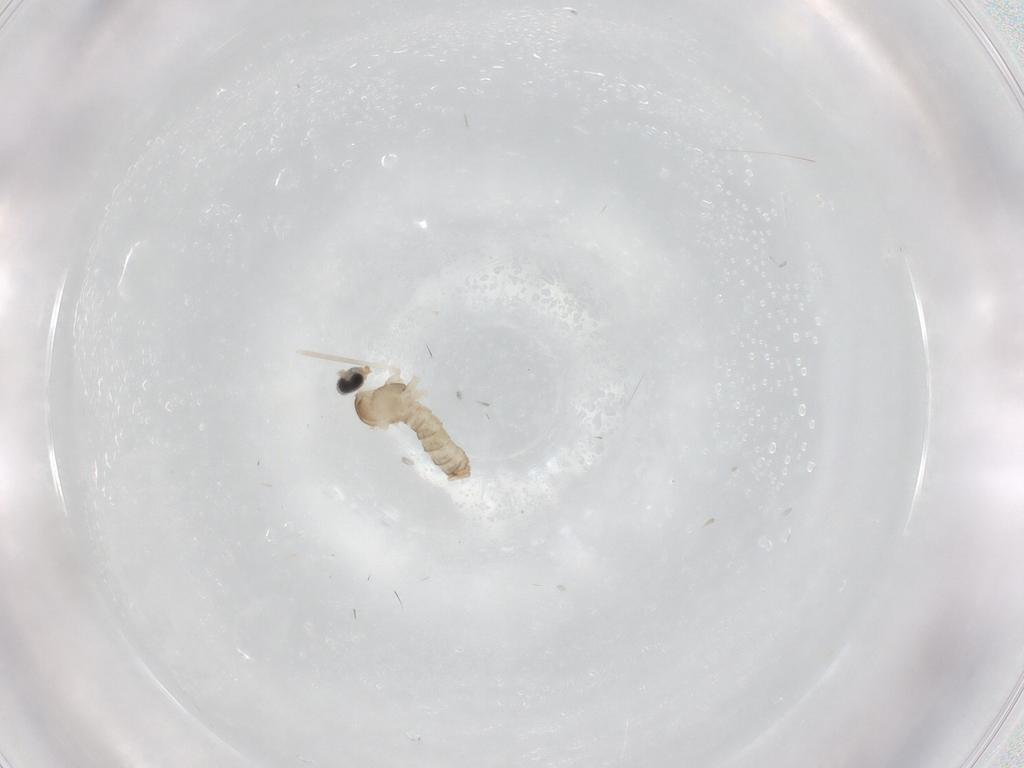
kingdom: Animalia
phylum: Arthropoda
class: Insecta
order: Diptera
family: Cecidomyiidae
